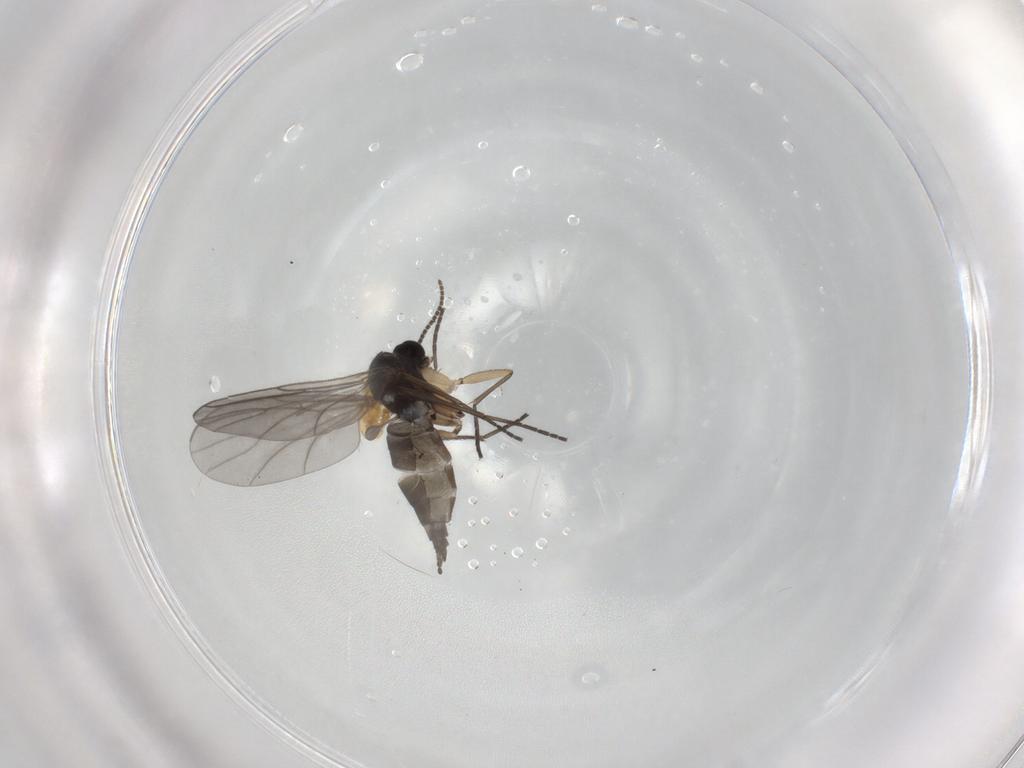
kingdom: Animalia
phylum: Arthropoda
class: Insecta
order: Diptera
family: Chironomidae
